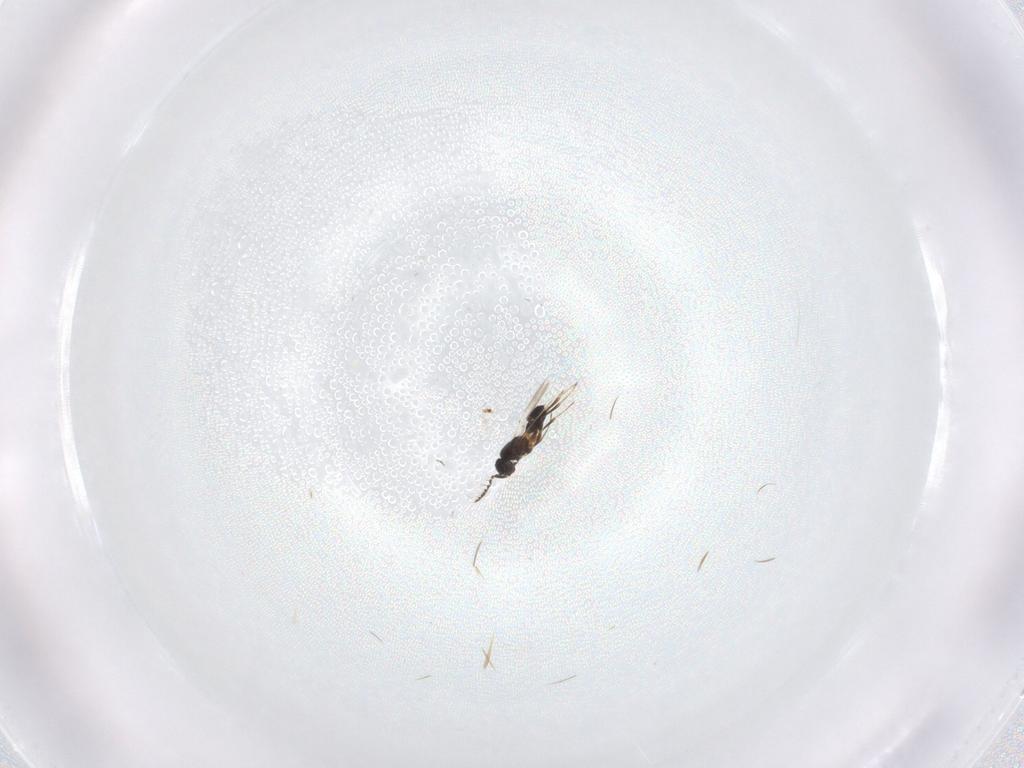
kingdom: Animalia
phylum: Arthropoda
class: Insecta
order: Hymenoptera
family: Platygastridae
